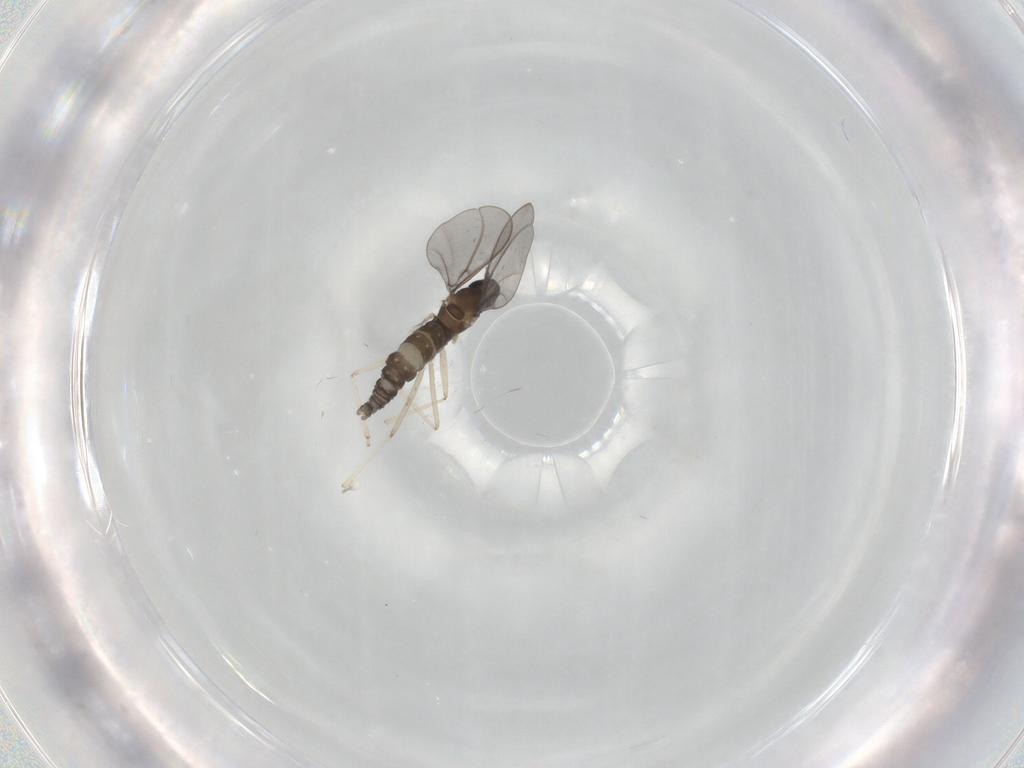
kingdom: Animalia
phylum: Arthropoda
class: Insecta
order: Diptera
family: Cecidomyiidae
